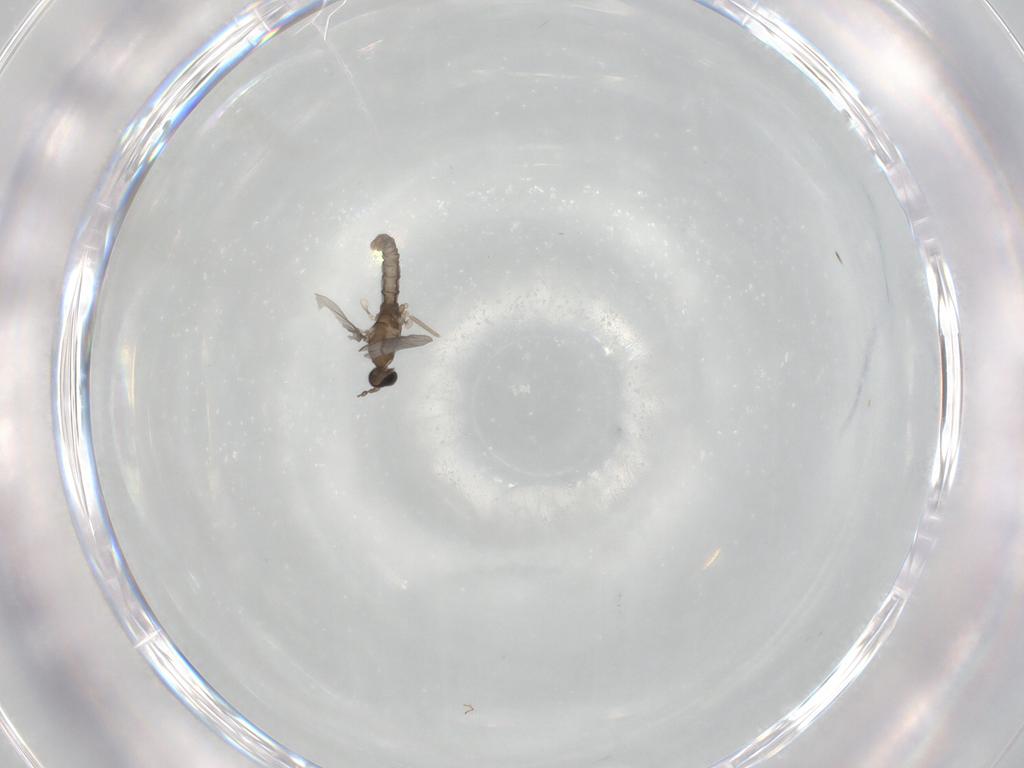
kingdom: Animalia
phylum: Arthropoda
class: Insecta
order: Diptera
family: Cecidomyiidae
